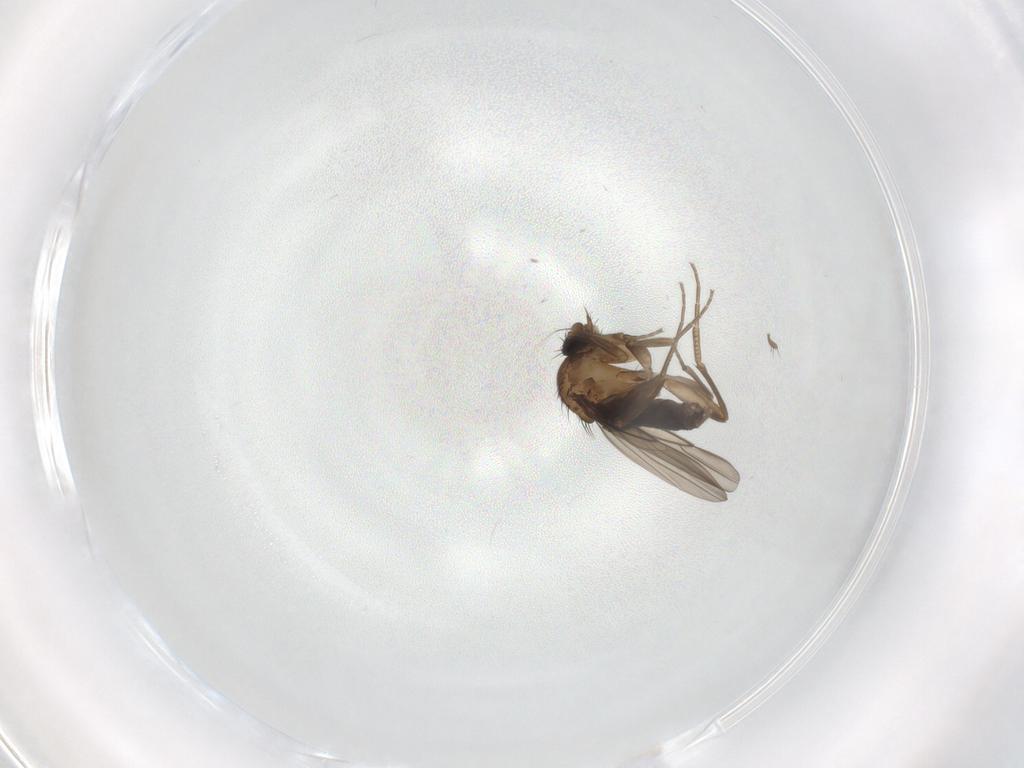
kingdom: Animalia
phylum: Arthropoda
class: Insecta
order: Diptera
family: Phoridae
